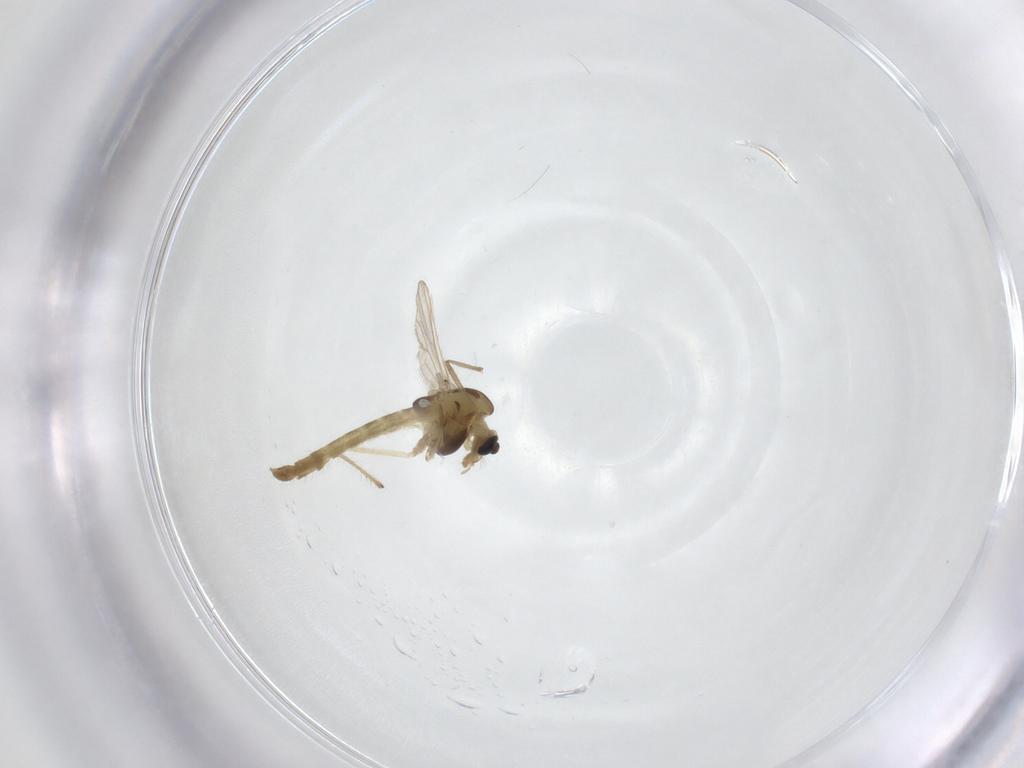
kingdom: Animalia
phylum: Arthropoda
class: Insecta
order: Diptera
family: Chironomidae
